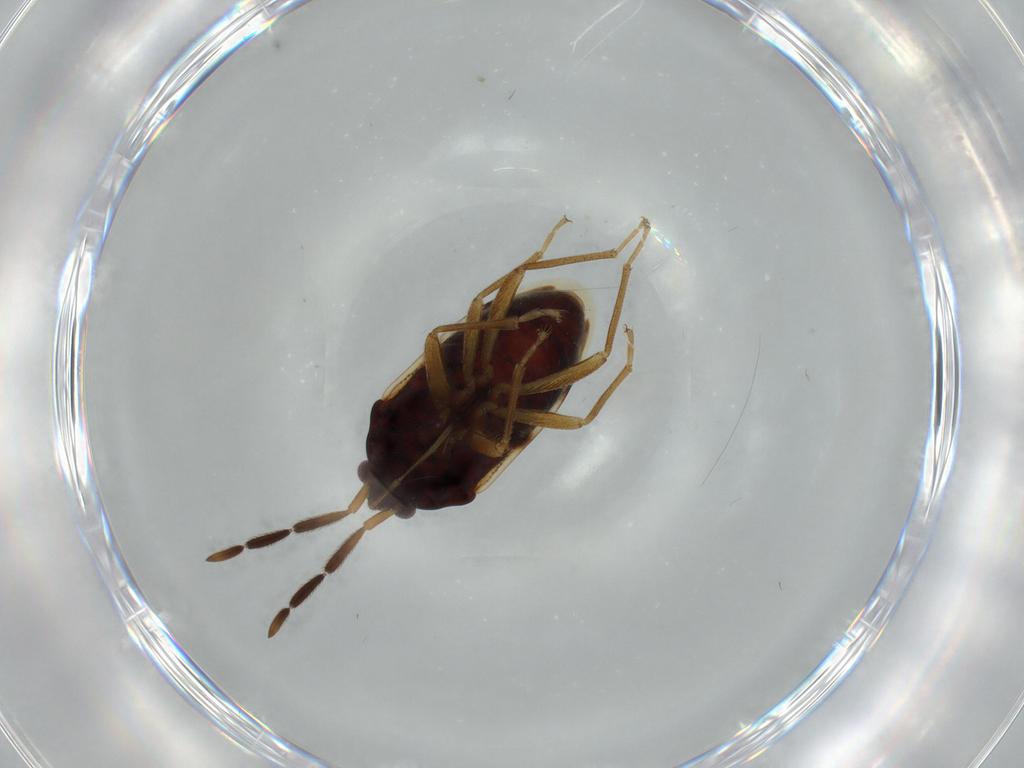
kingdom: Animalia
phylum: Arthropoda
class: Insecta
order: Hemiptera
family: Rhyparochromidae
